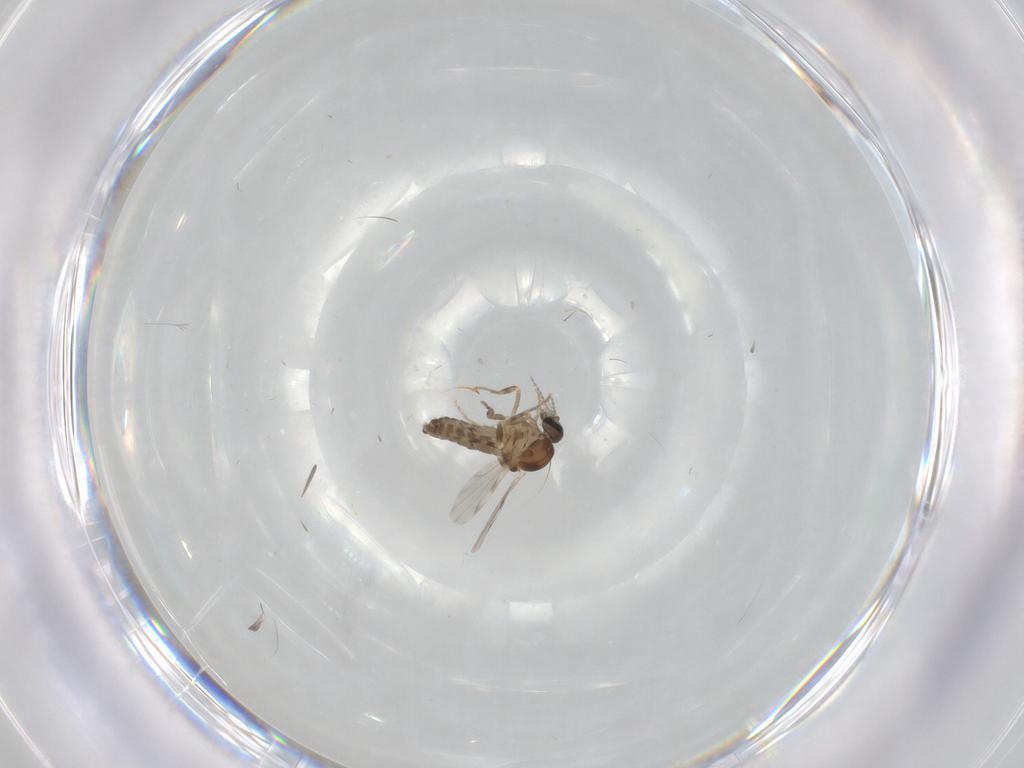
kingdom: Animalia
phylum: Arthropoda
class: Insecta
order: Diptera
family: Ceratopogonidae
